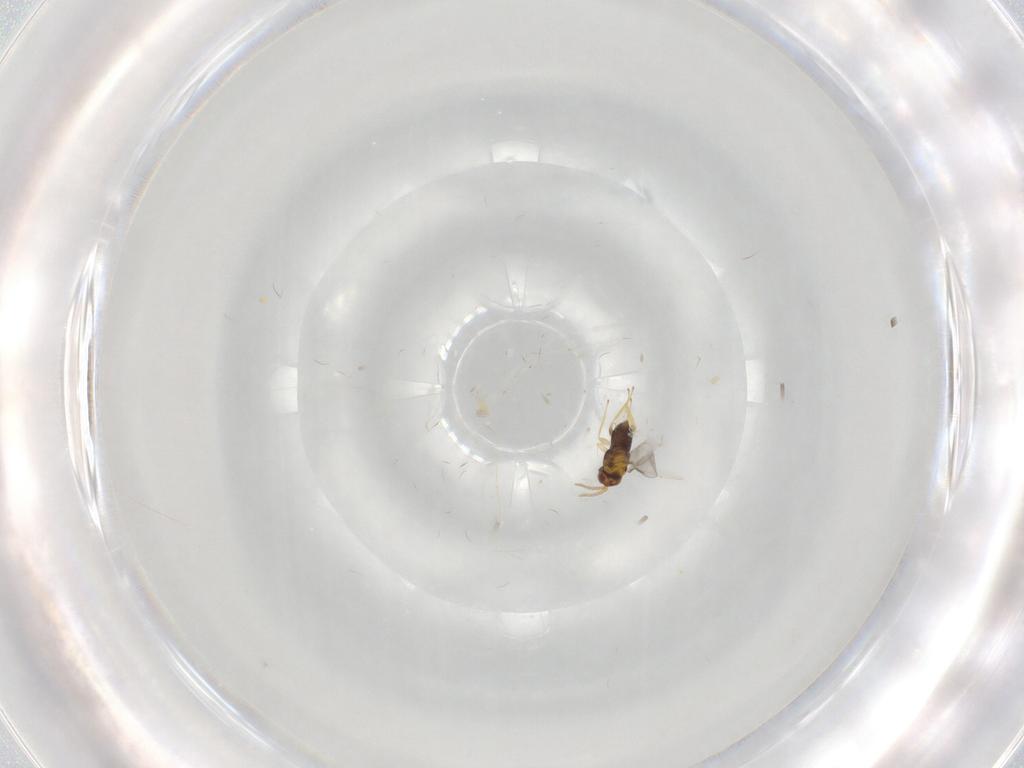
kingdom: Animalia
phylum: Arthropoda
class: Insecta
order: Hymenoptera
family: Aphelinidae
